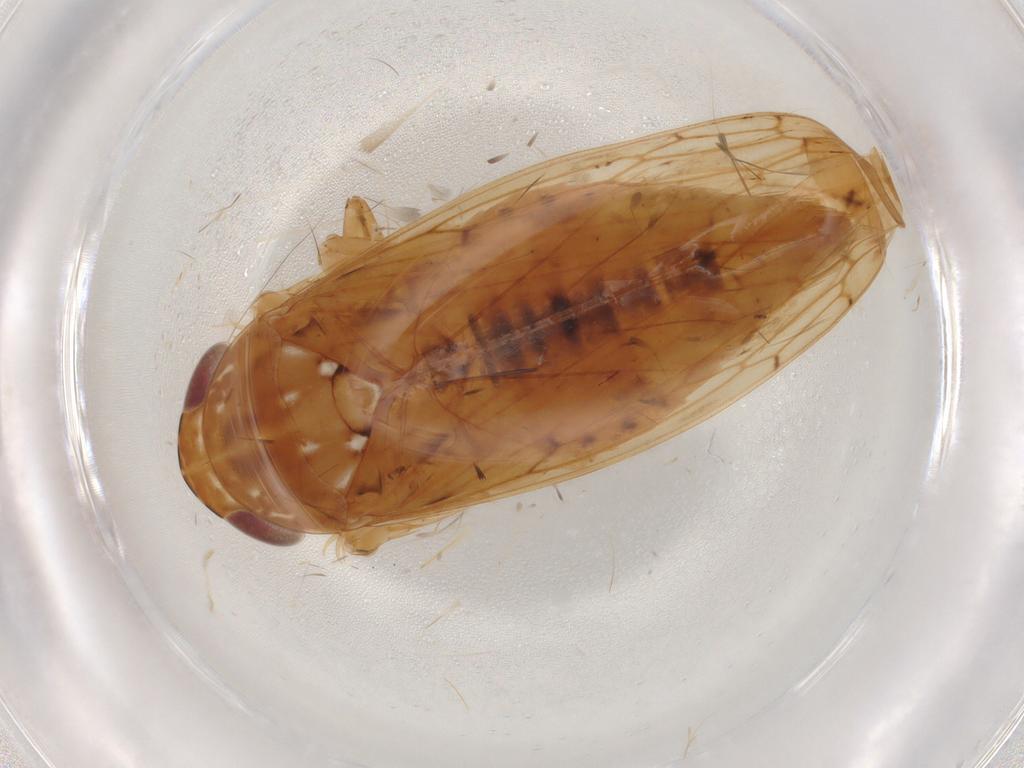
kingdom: Animalia
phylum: Arthropoda
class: Insecta
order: Hemiptera
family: Cicadellidae
